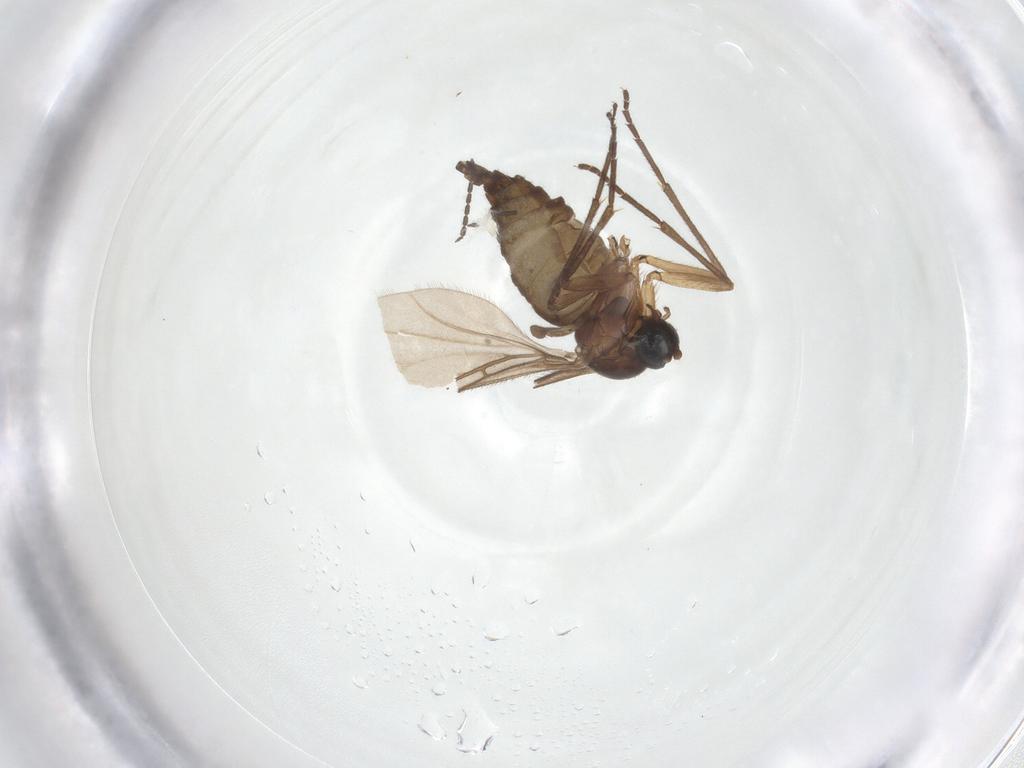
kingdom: Animalia
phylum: Arthropoda
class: Insecta
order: Diptera
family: Sciaridae
